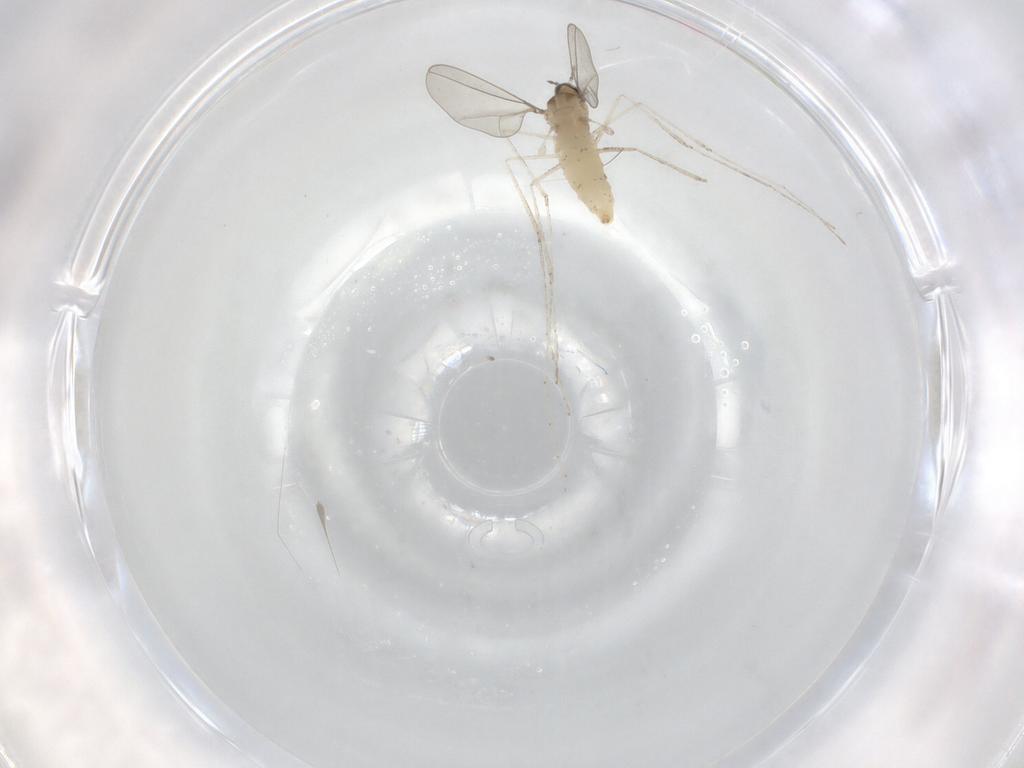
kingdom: Animalia
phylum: Arthropoda
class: Insecta
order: Diptera
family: Cecidomyiidae
